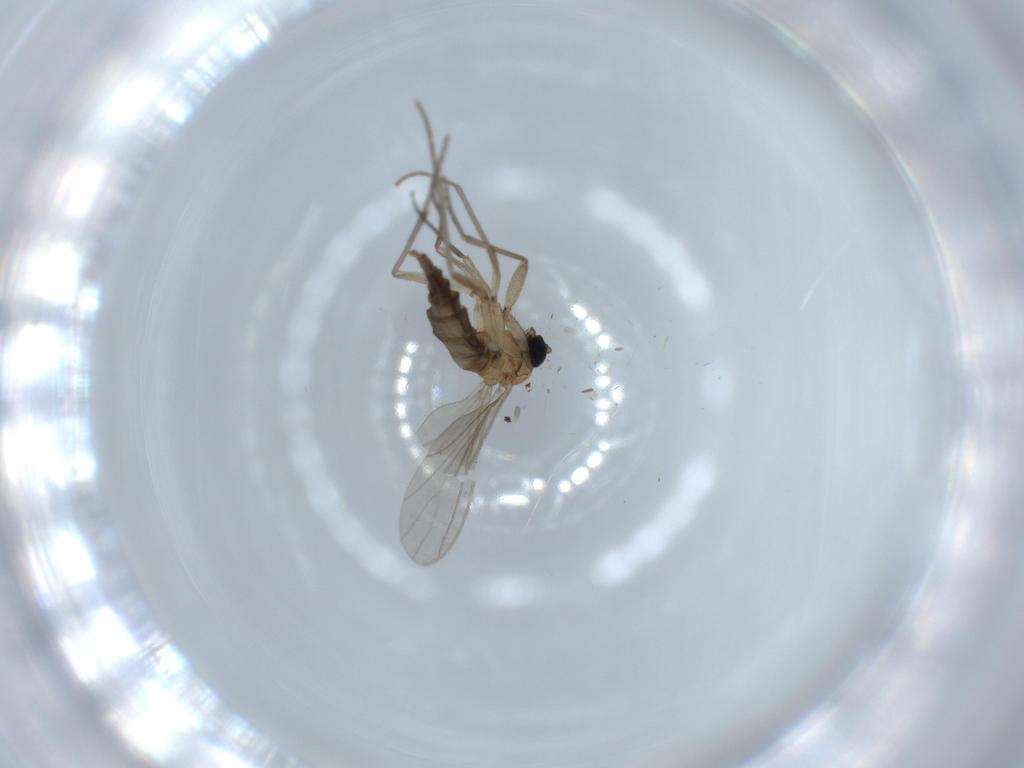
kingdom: Animalia
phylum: Arthropoda
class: Insecta
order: Diptera
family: Sciaridae
